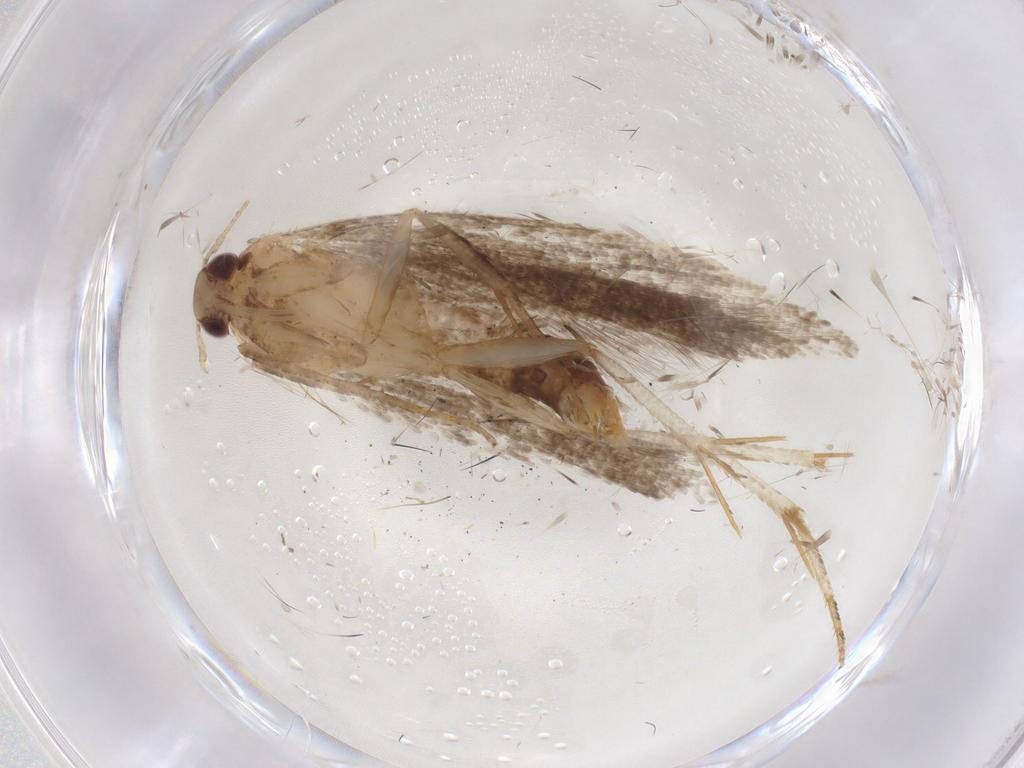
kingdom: Animalia
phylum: Arthropoda
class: Insecta
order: Lepidoptera
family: Gelechiidae
